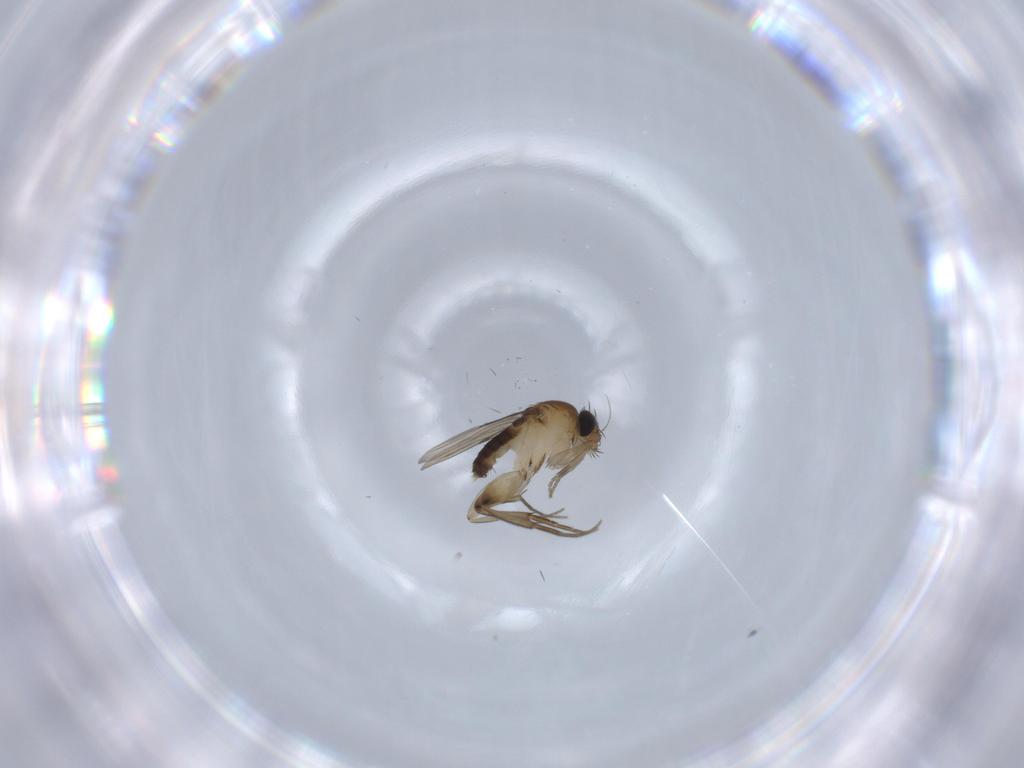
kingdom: Animalia
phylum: Arthropoda
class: Insecta
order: Diptera
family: Phoridae
